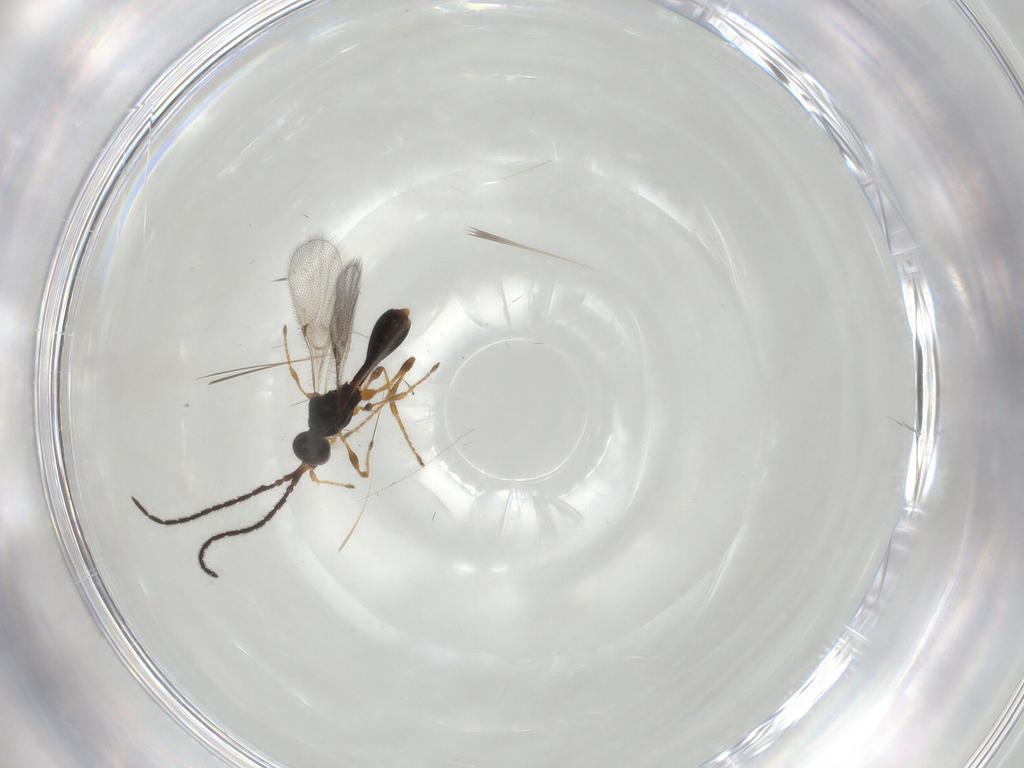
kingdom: Animalia
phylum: Arthropoda
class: Insecta
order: Hymenoptera
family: Diapriidae
